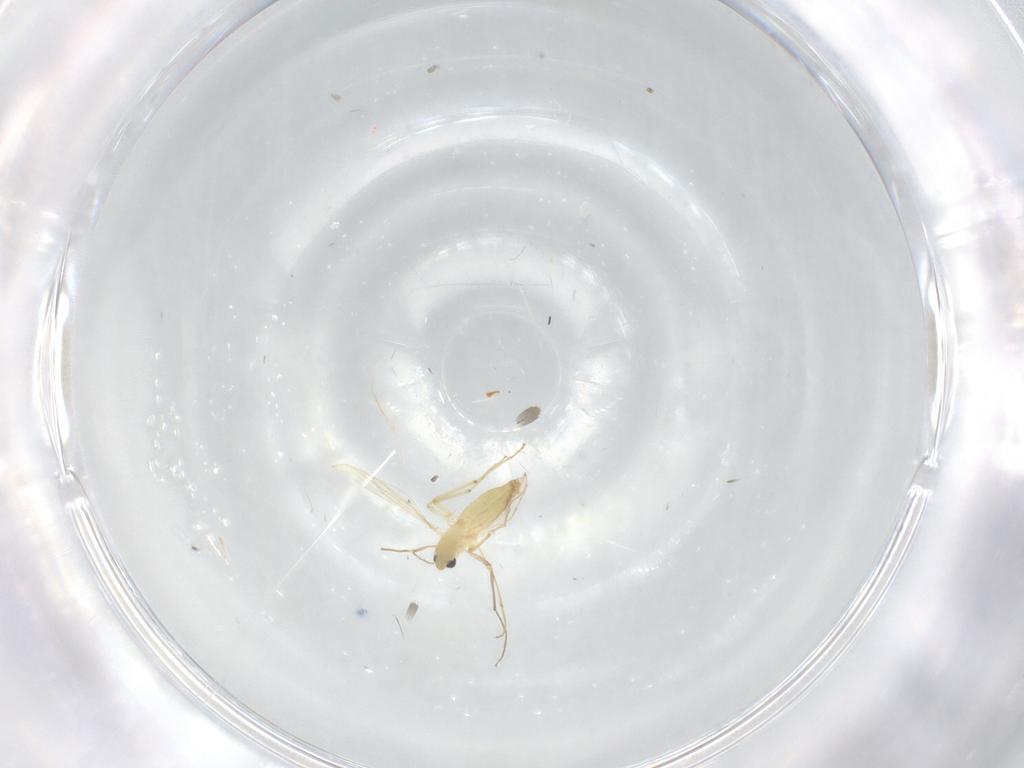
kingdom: Animalia
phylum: Arthropoda
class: Insecta
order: Diptera
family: Chironomidae
